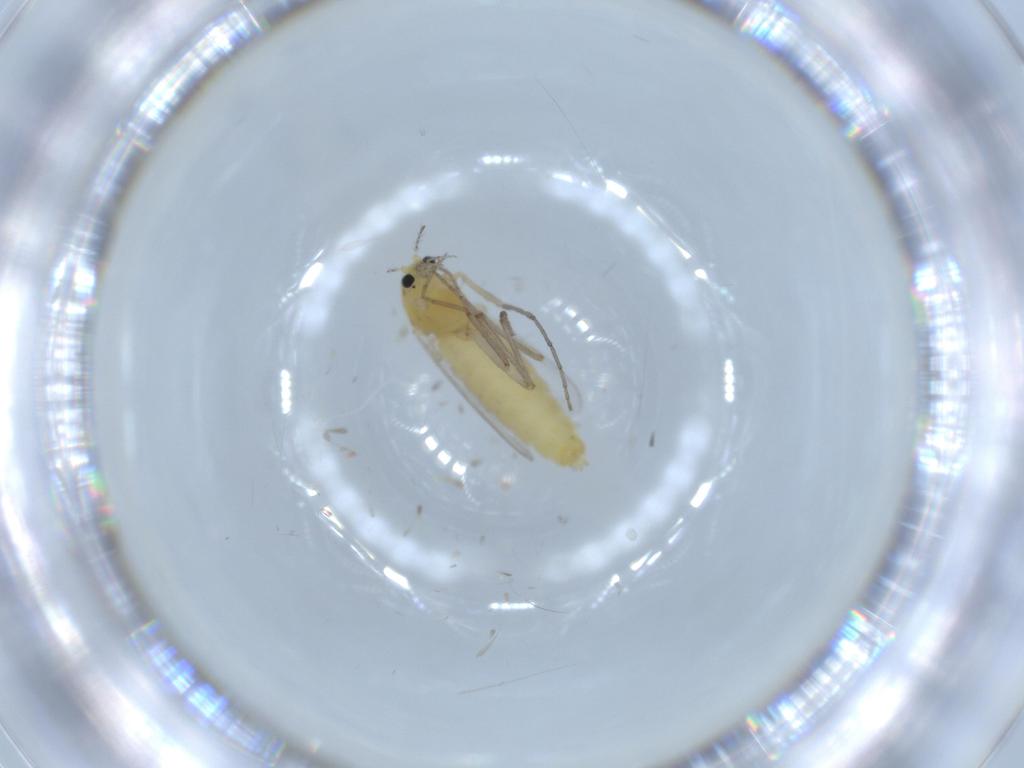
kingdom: Animalia
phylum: Arthropoda
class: Insecta
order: Diptera
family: Chironomidae
